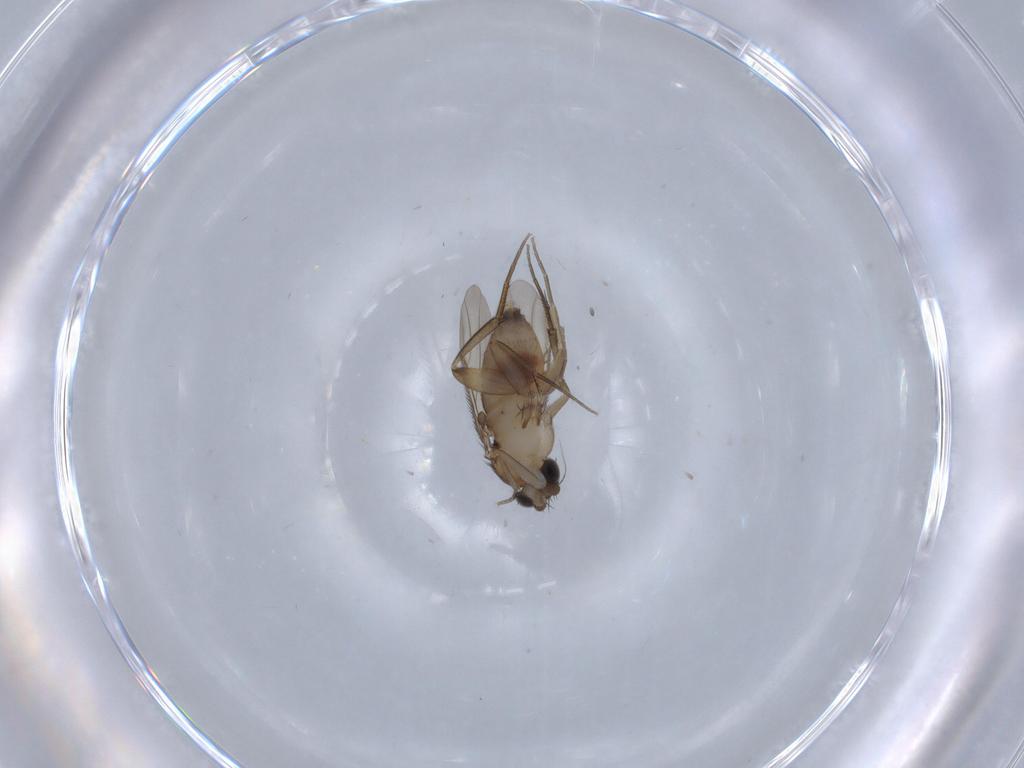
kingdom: Animalia
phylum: Arthropoda
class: Insecta
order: Diptera
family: Phoridae
